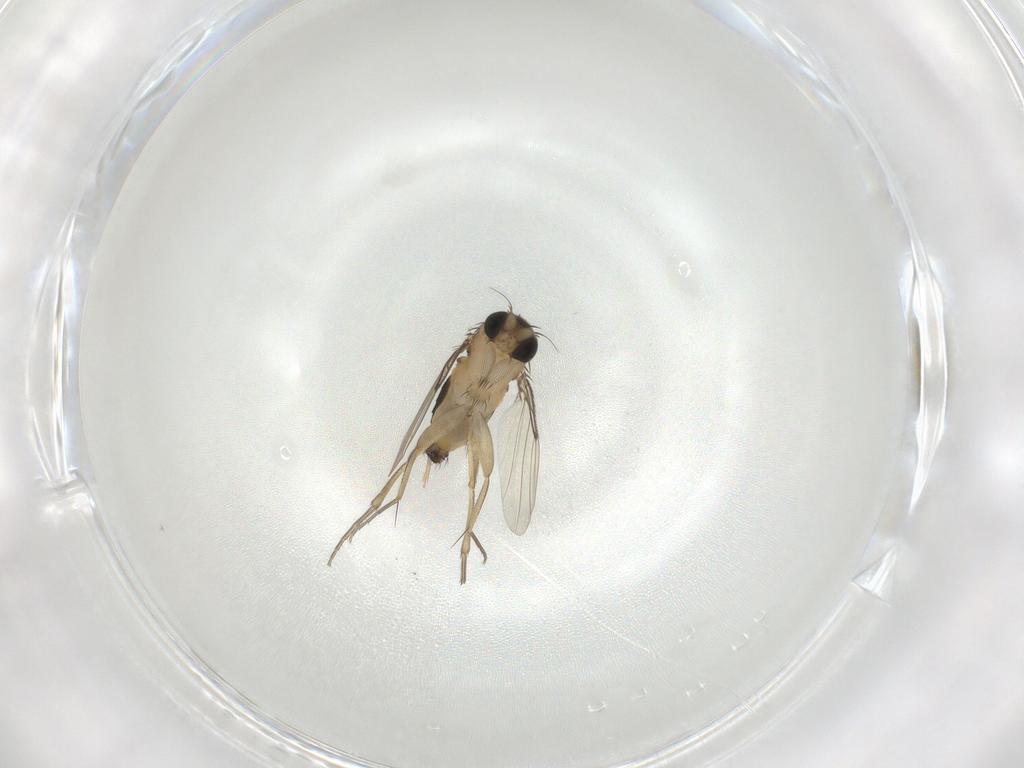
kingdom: Animalia
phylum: Arthropoda
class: Insecta
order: Diptera
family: Phoridae
